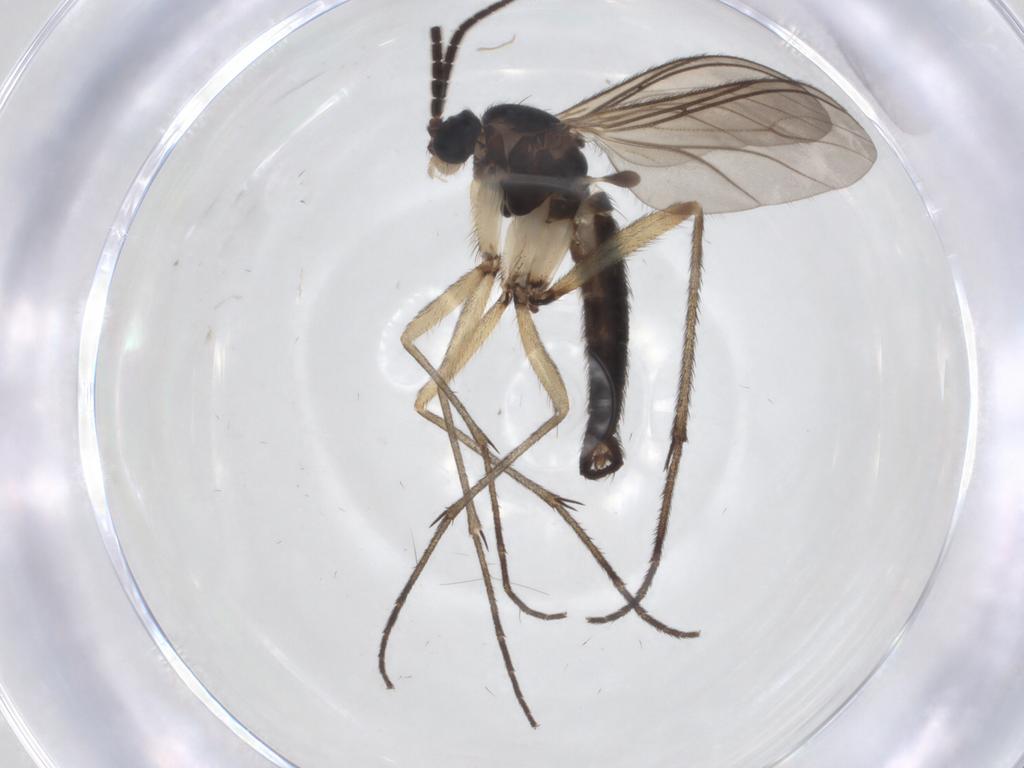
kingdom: Animalia
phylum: Arthropoda
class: Insecta
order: Diptera
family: Sciaridae
